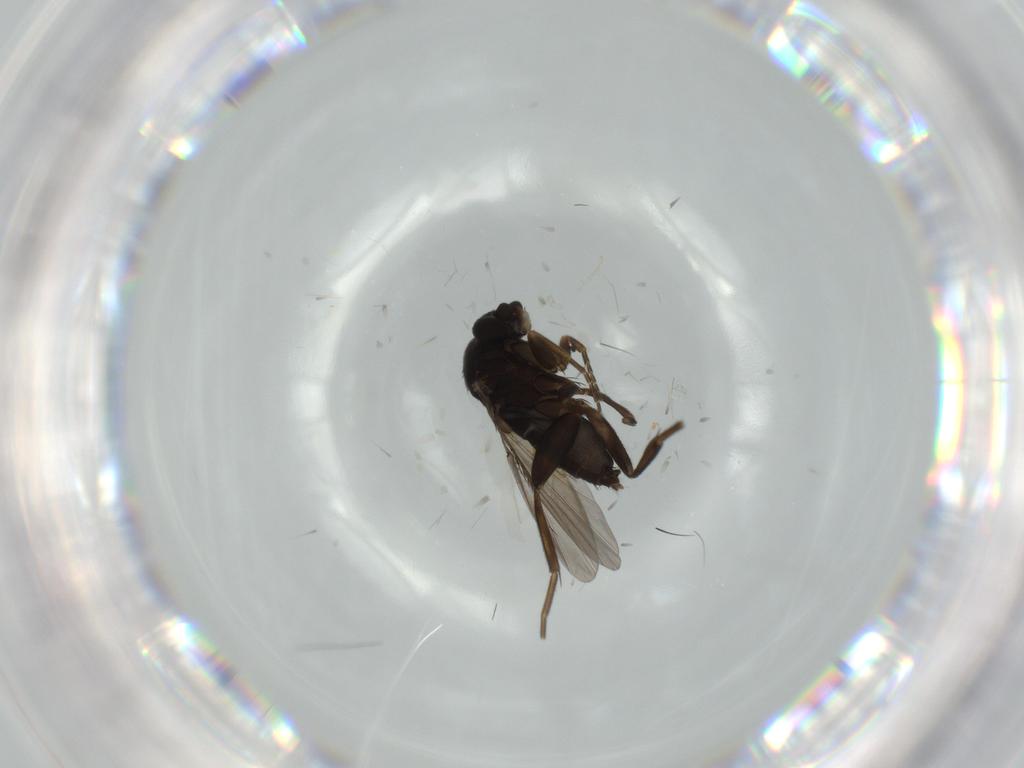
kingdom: Animalia
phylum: Arthropoda
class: Insecta
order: Diptera
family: Phoridae
